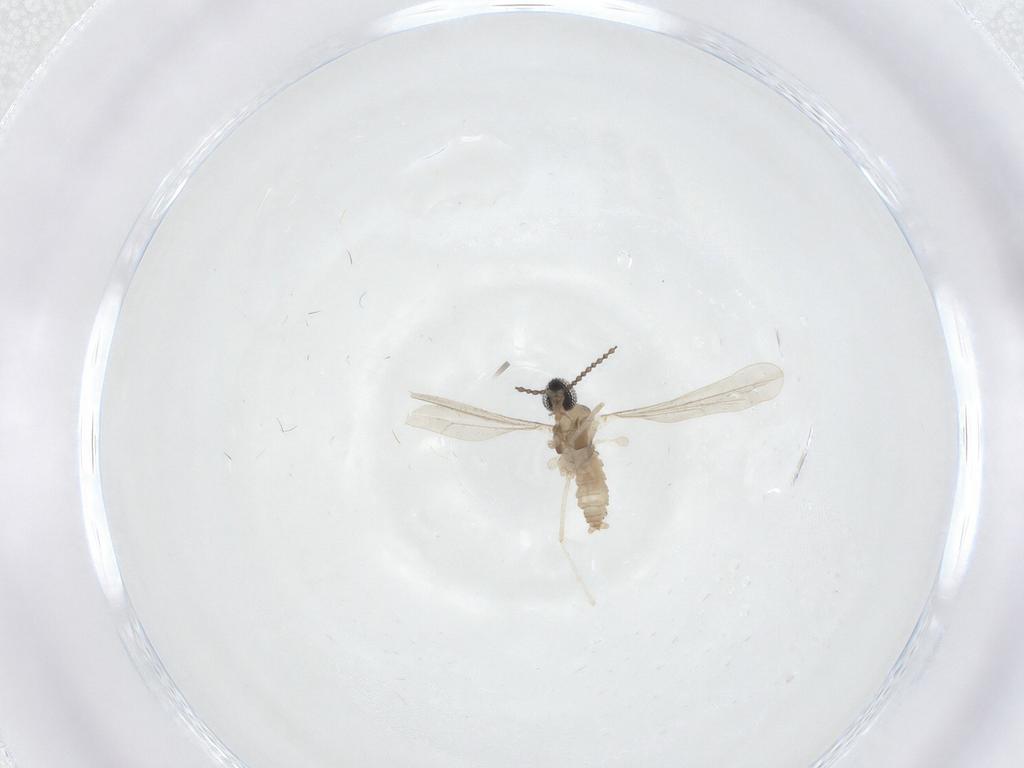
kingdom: Animalia
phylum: Arthropoda
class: Insecta
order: Diptera
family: Cecidomyiidae
